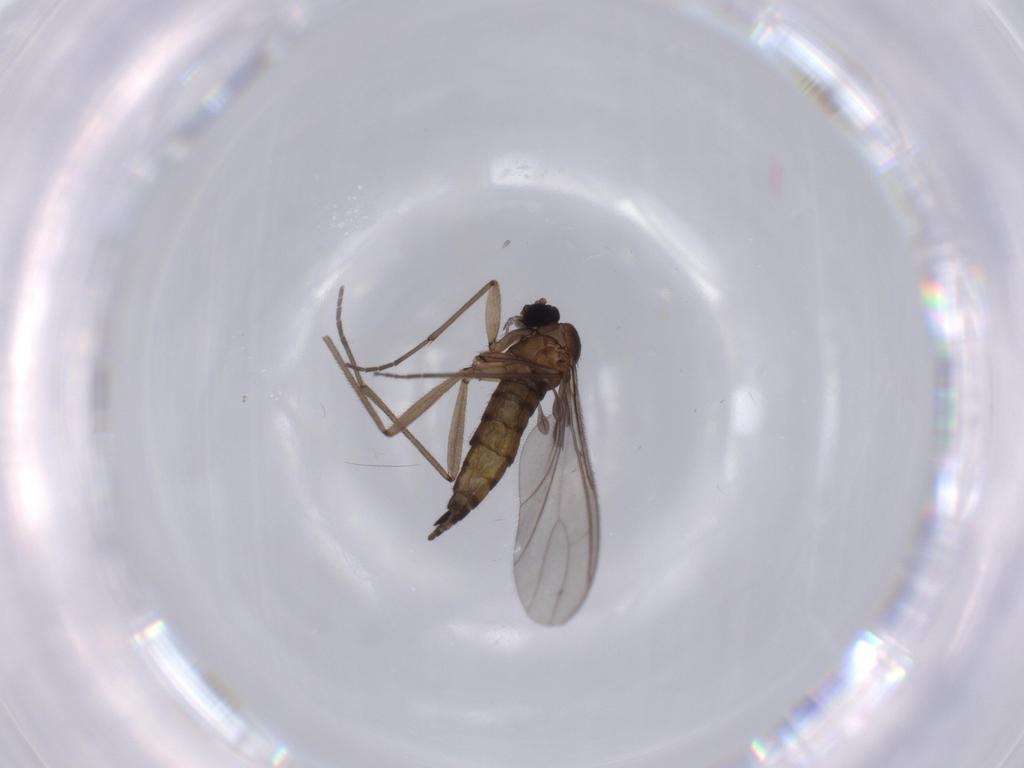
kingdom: Animalia
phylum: Arthropoda
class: Insecta
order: Diptera
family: Sciaridae
